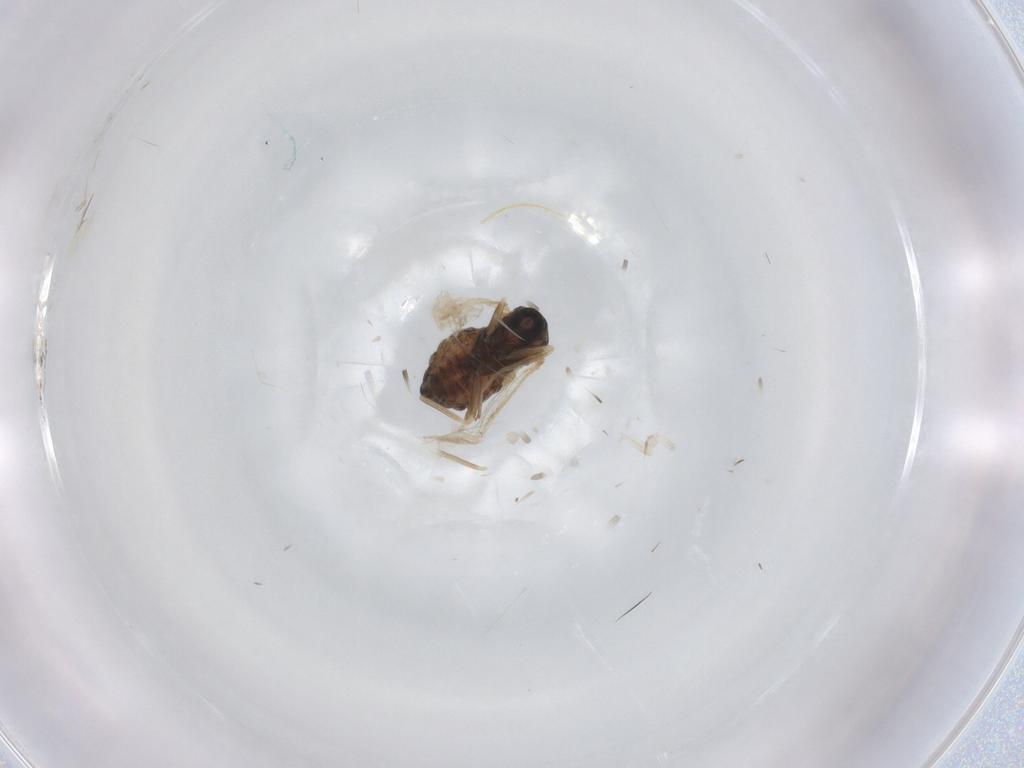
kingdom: Animalia
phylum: Arthropoda
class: Insecta
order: Diptera
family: Cecidomyiidae
